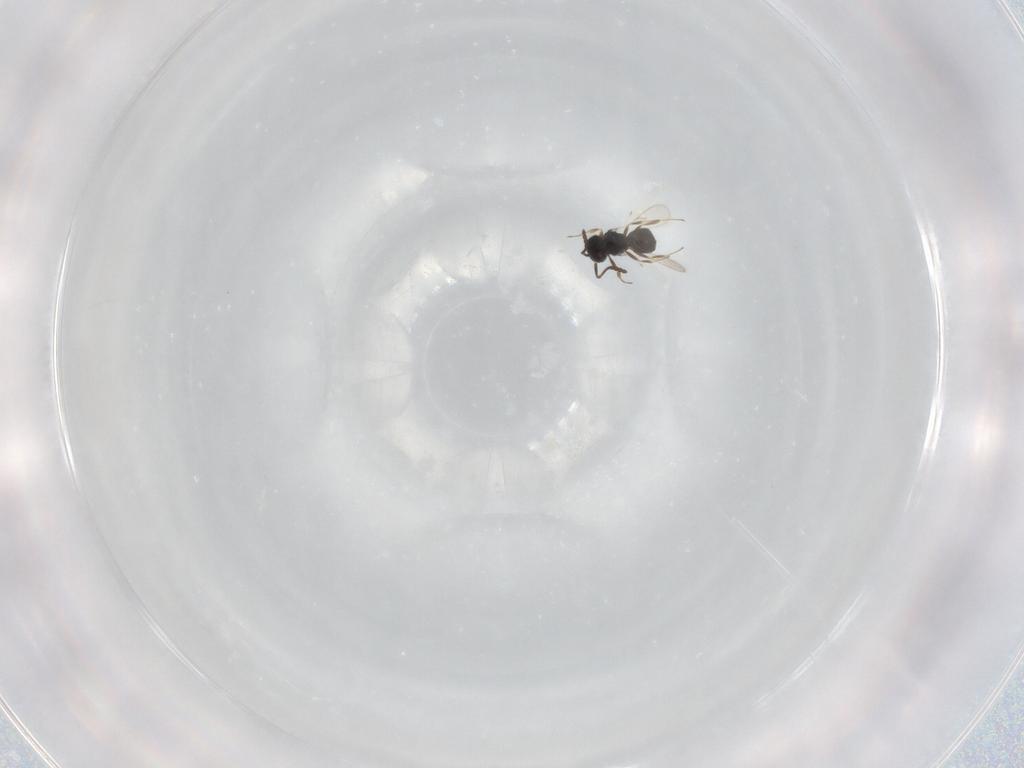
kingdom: Animalia
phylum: Arthropoda
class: Insecta
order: Hymenoptera
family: Scelionidae
